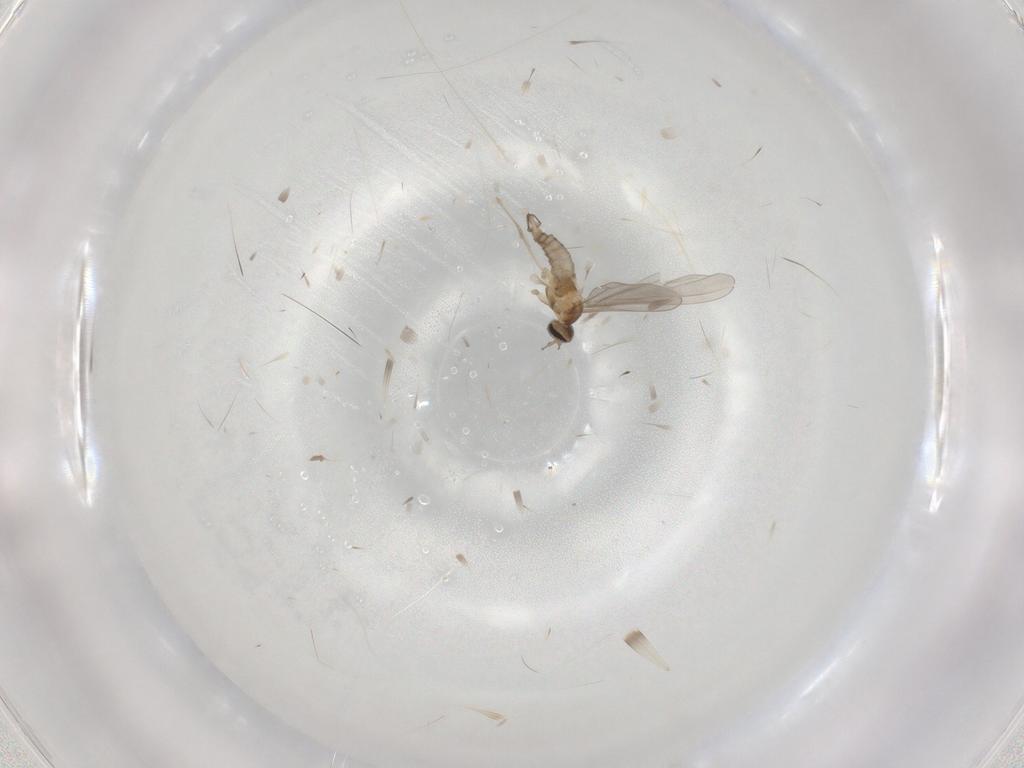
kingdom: Animalia
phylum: Arthropoda
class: Insecta
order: Diptera
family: Cecidomyiidae
